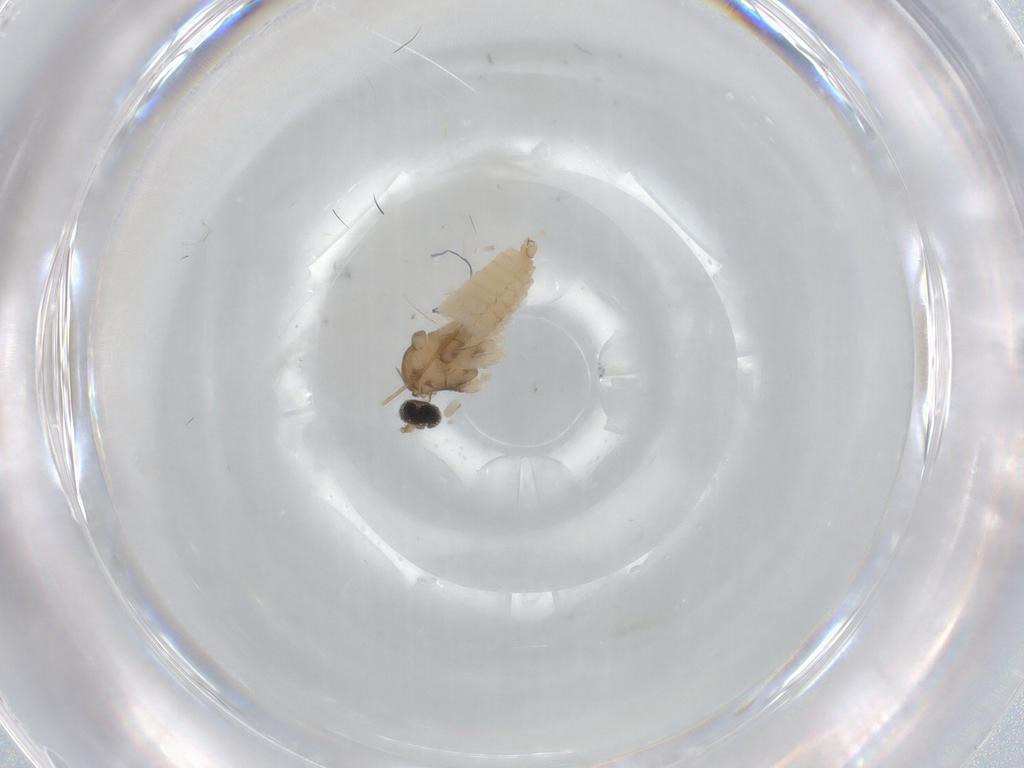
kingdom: Animalia
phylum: Arthropoda
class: Insecta
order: Diptera
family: Cecidomyiidae
